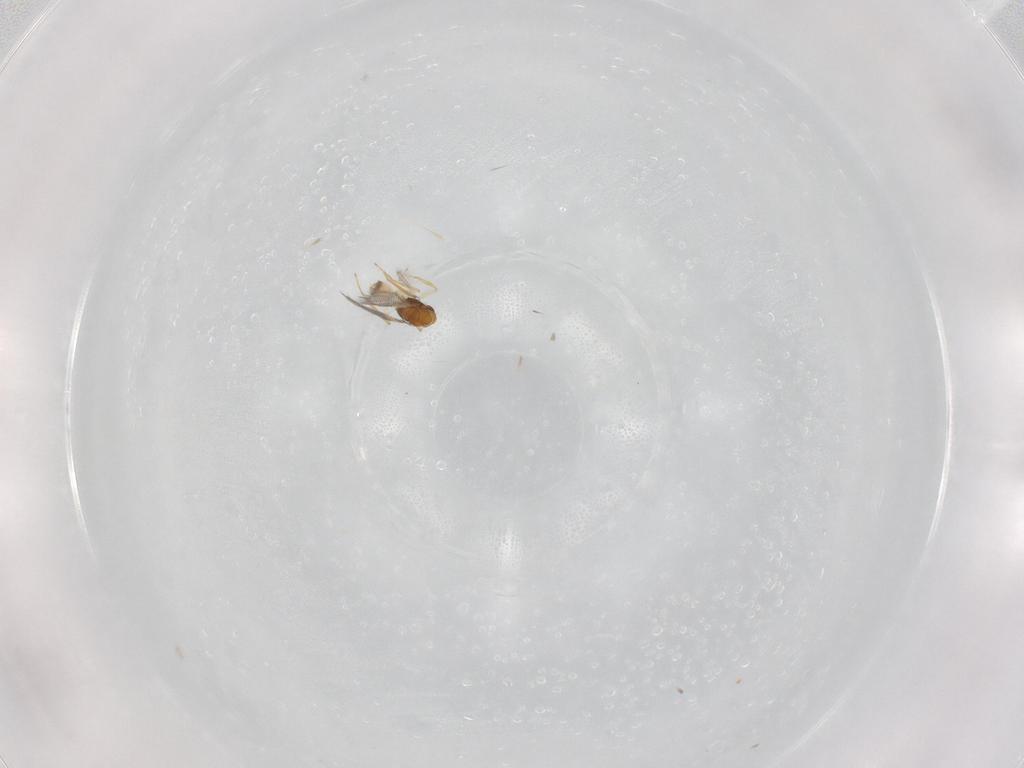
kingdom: Animalia
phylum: Arthropoda
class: Insecta
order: Hymenoptera
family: Mymaridae
